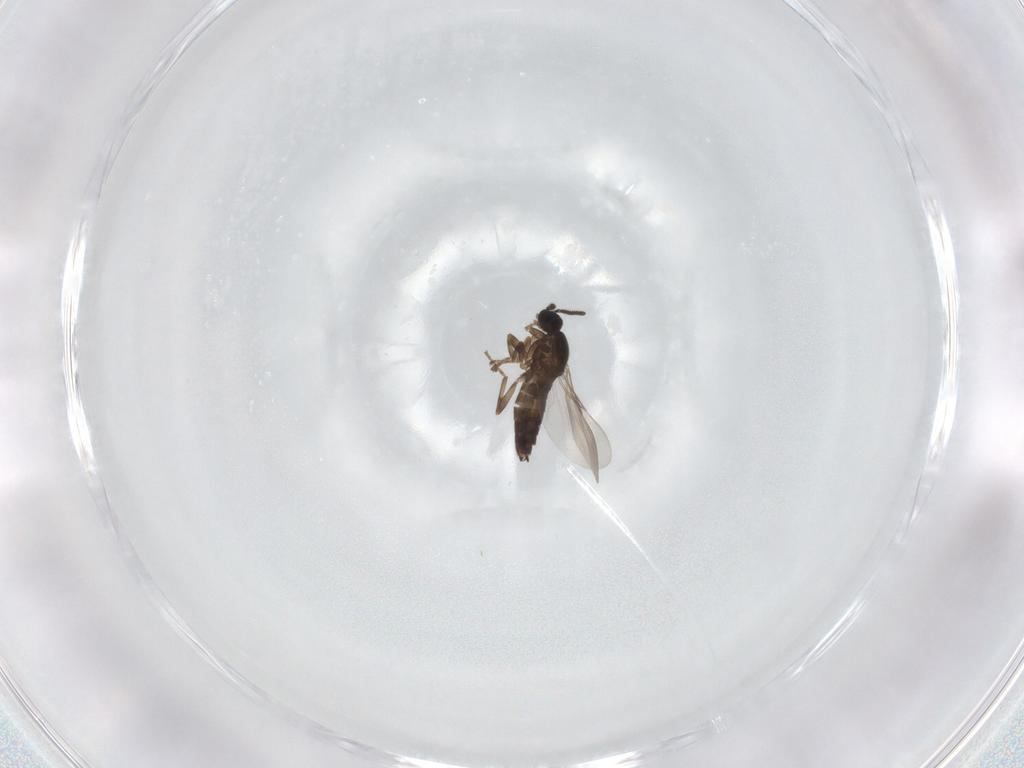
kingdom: Animalia
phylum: Arthropoda
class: Insecta
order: Diptera
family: Scatopsidae
